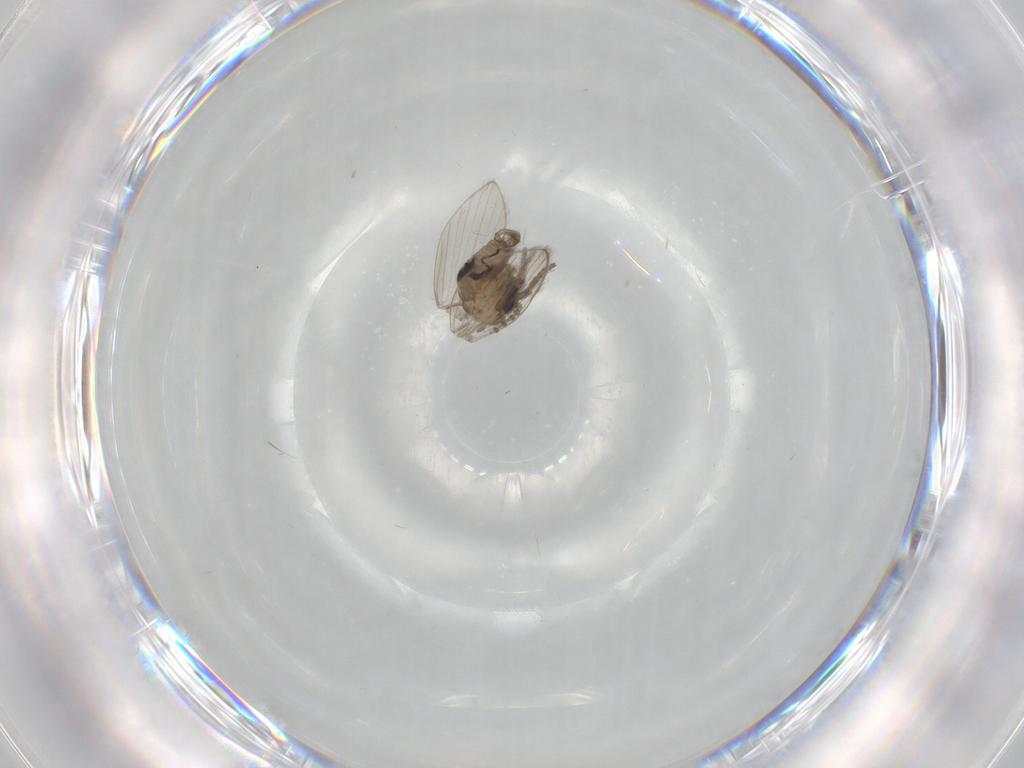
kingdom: Animalia
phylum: Arthropoda
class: Insecta
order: Diptera
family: Psychodidae
